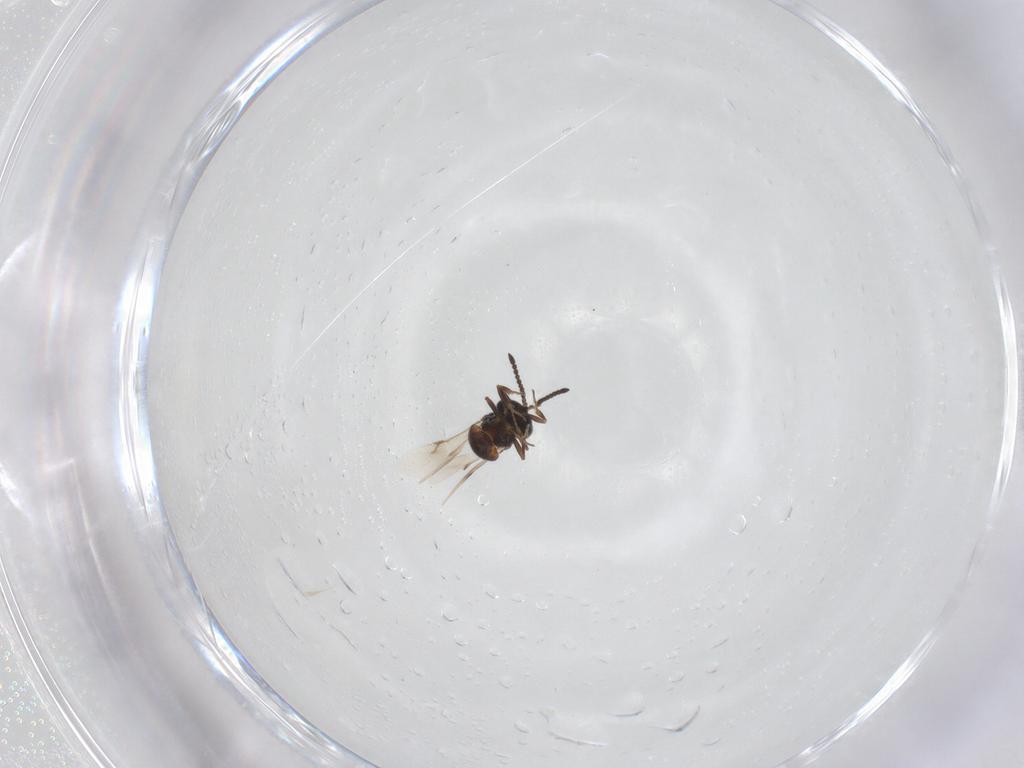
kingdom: Animalia
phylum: Arthropoda
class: Insecta
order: Hymenoptera
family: Scelionidae
